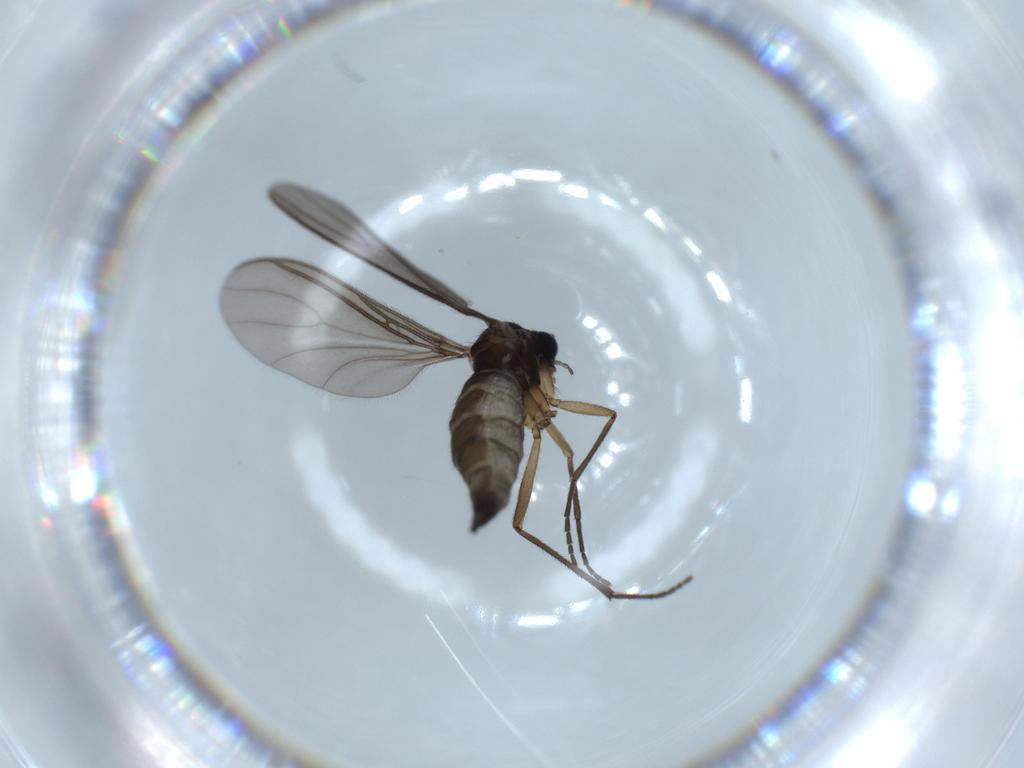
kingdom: Animalia
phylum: Arthropoda
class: Insecta
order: Diptera
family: Sciaridae
